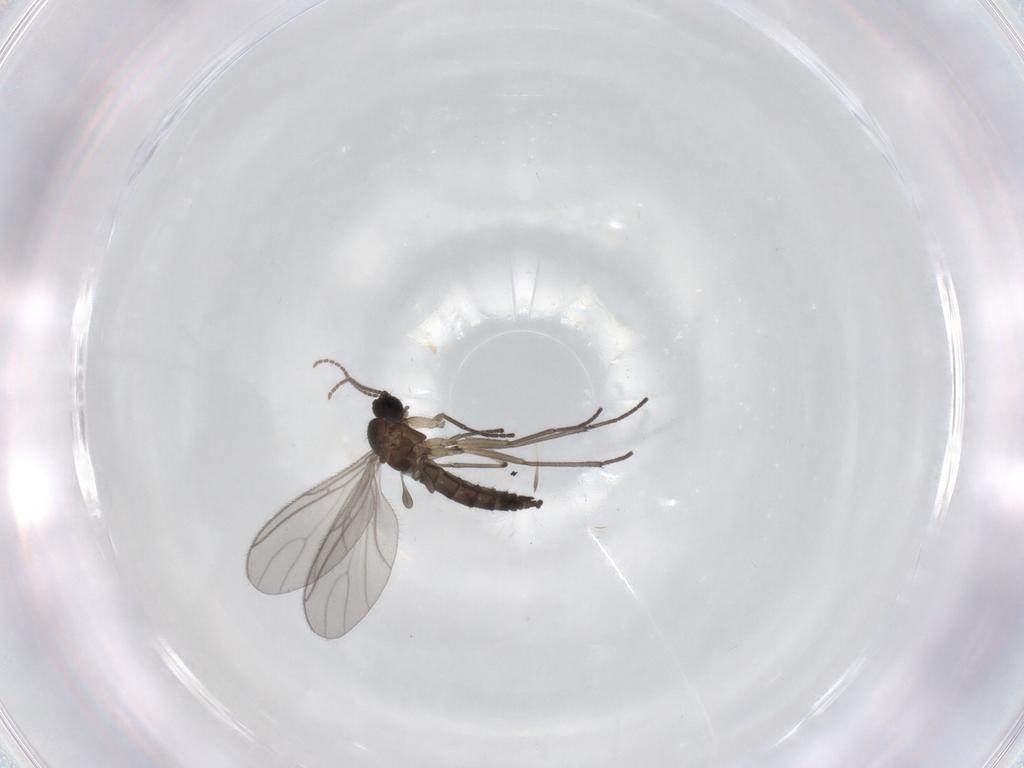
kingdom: Animalia
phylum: Arthropoda
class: Insecta
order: Diptera
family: Sciaridae
